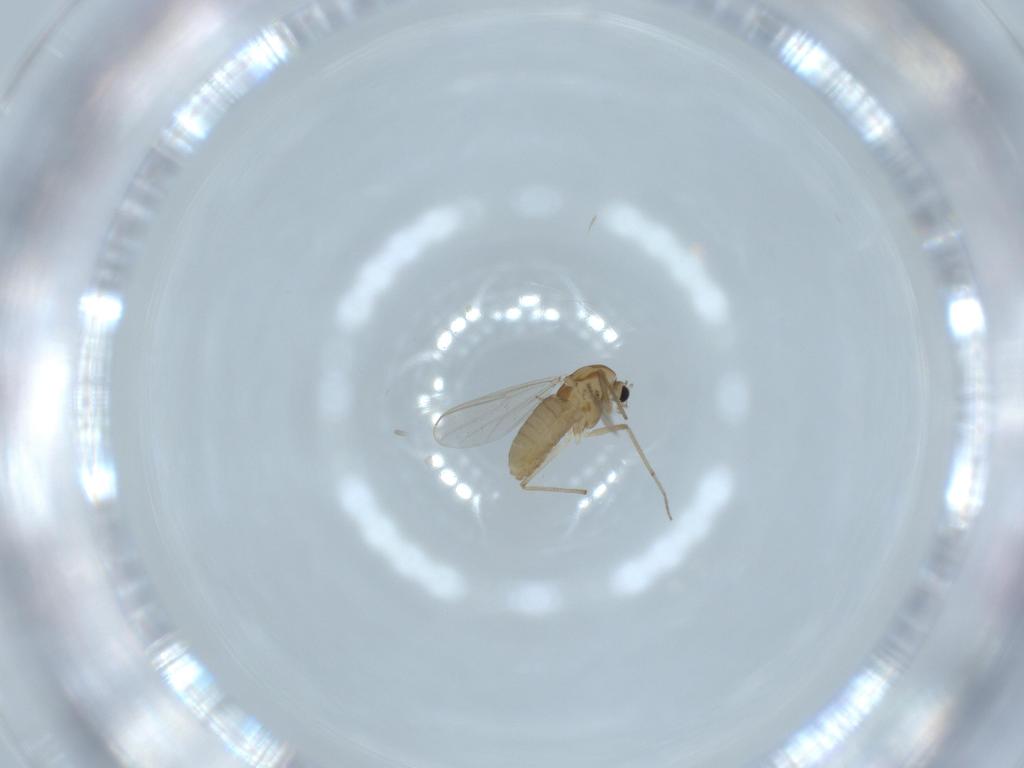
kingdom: Animalia
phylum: Arthropoda
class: Insecta
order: Diptera
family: Chironomidae
